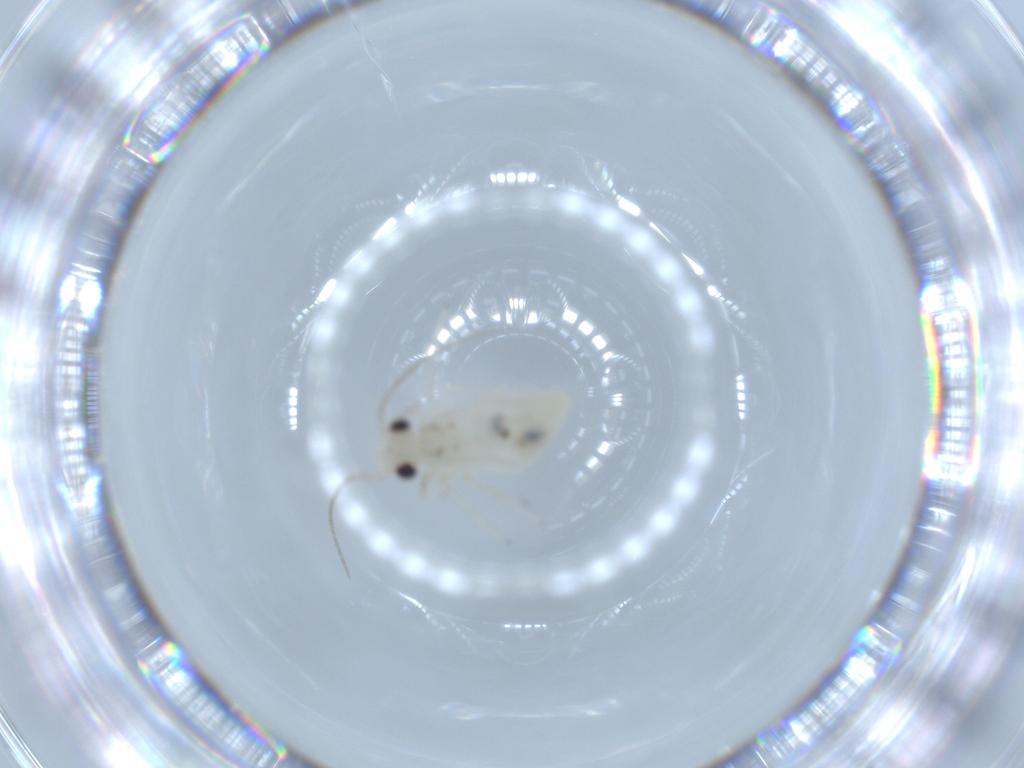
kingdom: Animalia
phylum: Arthropoda
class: Insecta
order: Psocodea
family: Caeciliusidae
